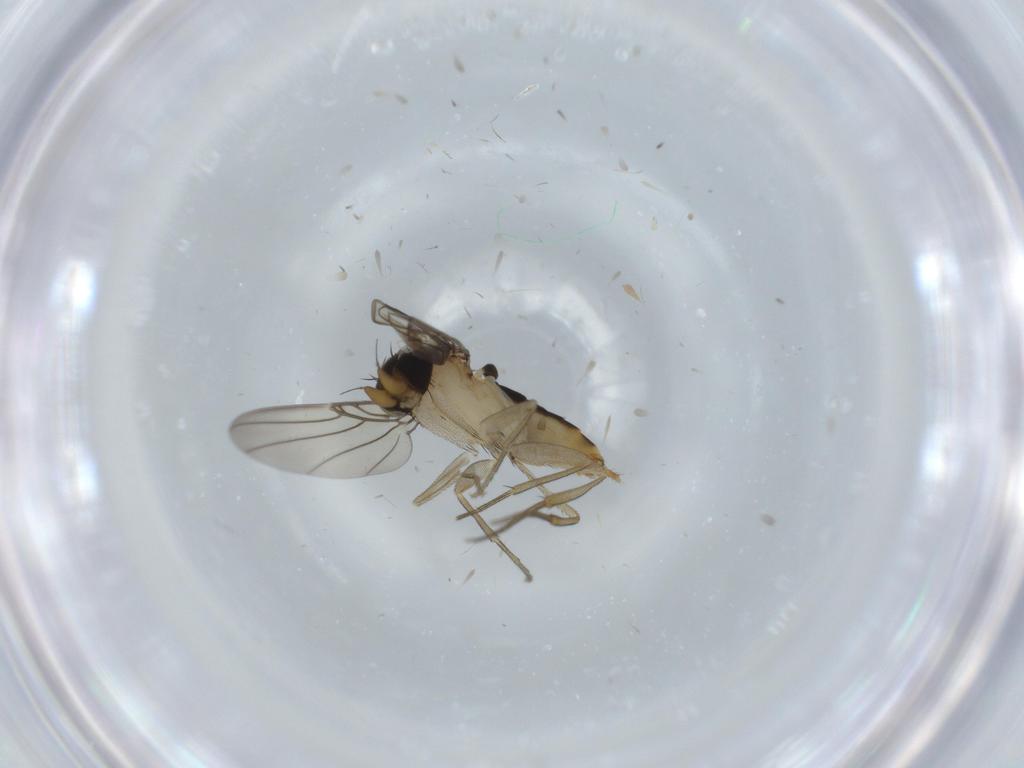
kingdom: Animalia
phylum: Arthropoda
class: Insecta
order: Diptera
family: Phoridae
